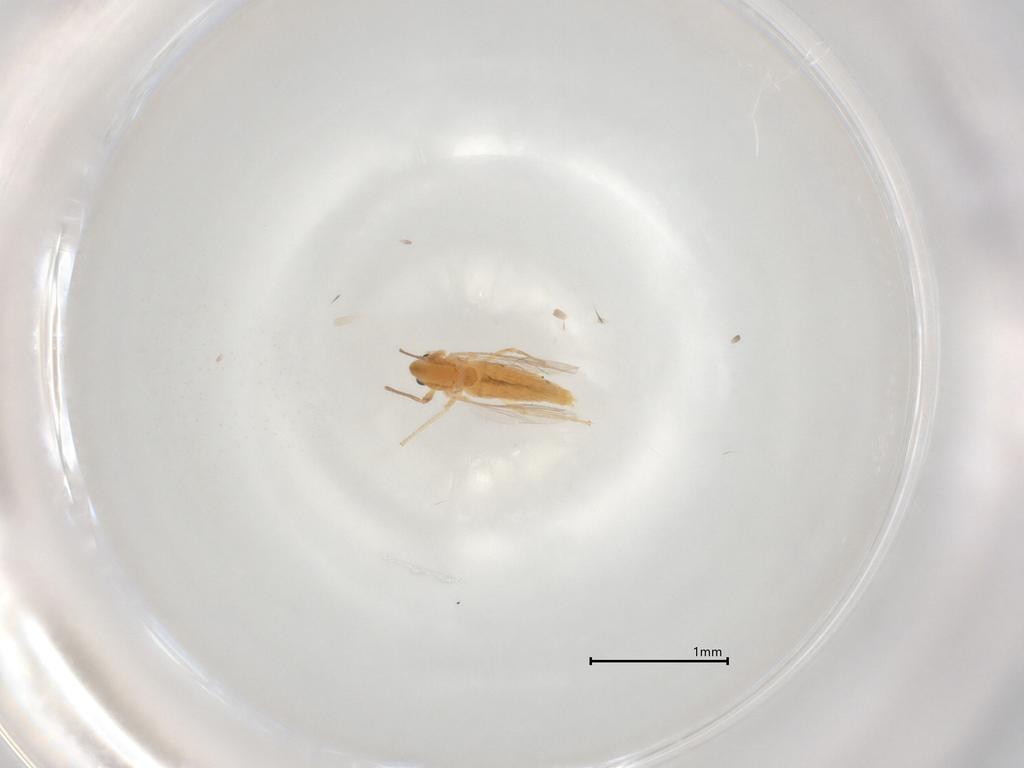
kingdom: Animalia
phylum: Arthropoda
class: Insecta
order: Diptera
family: Chironomidae
